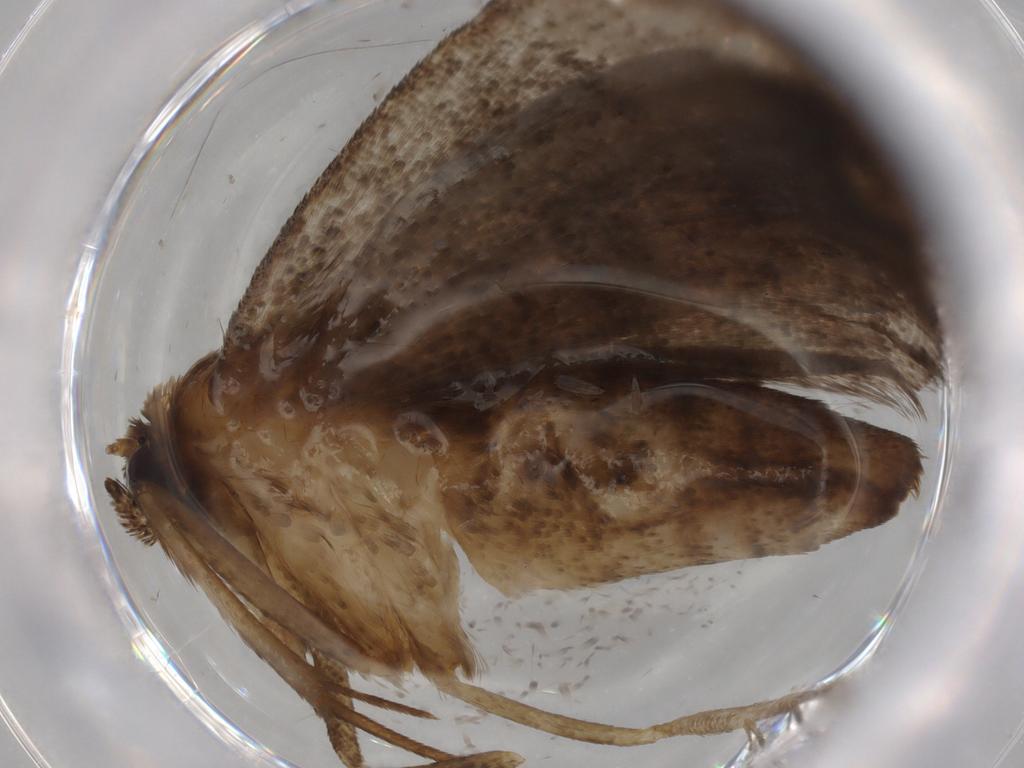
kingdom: Animalia
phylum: Arthropoda
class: Insecta
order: Lepidoptera
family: Noctuidae
